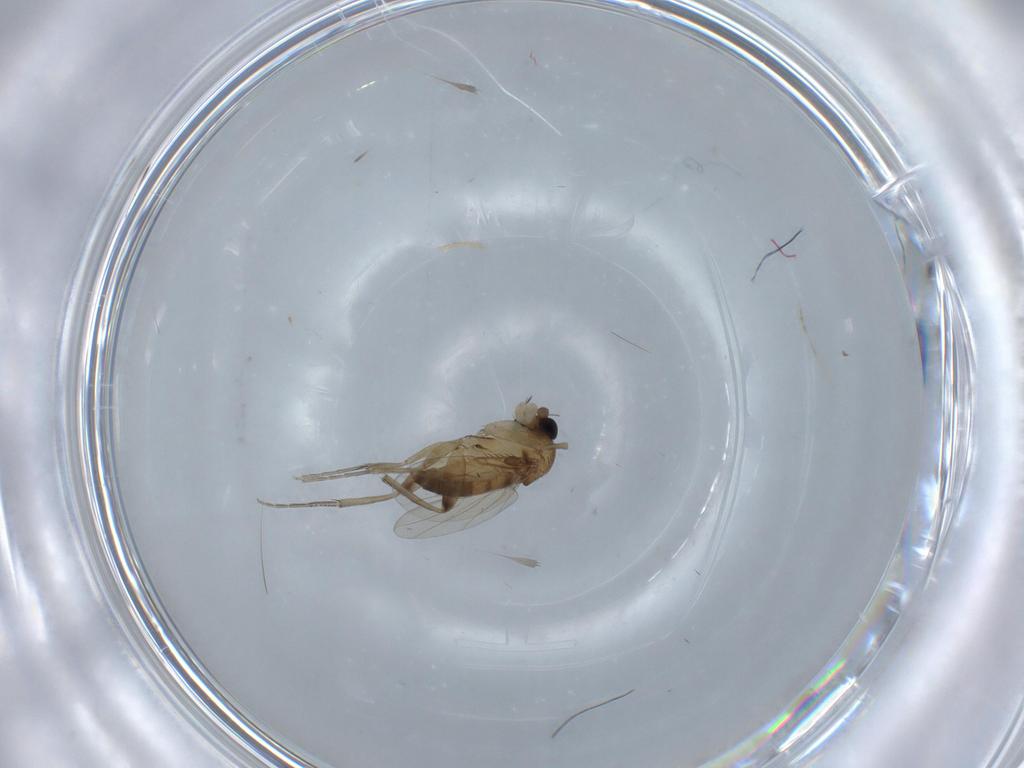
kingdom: Animalia
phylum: Arthropoda
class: Insecta
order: Diptera
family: Phoridae
